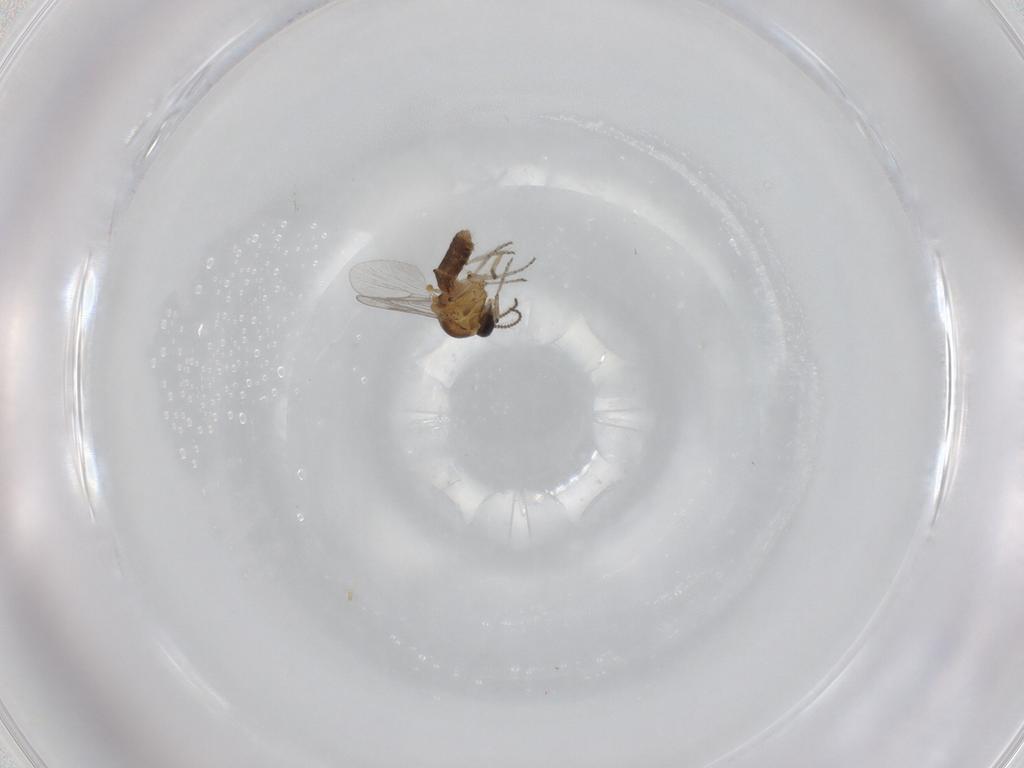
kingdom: Animalia
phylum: Arthropoda
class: Insecta
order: Diptera
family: Ceratopogonidae
